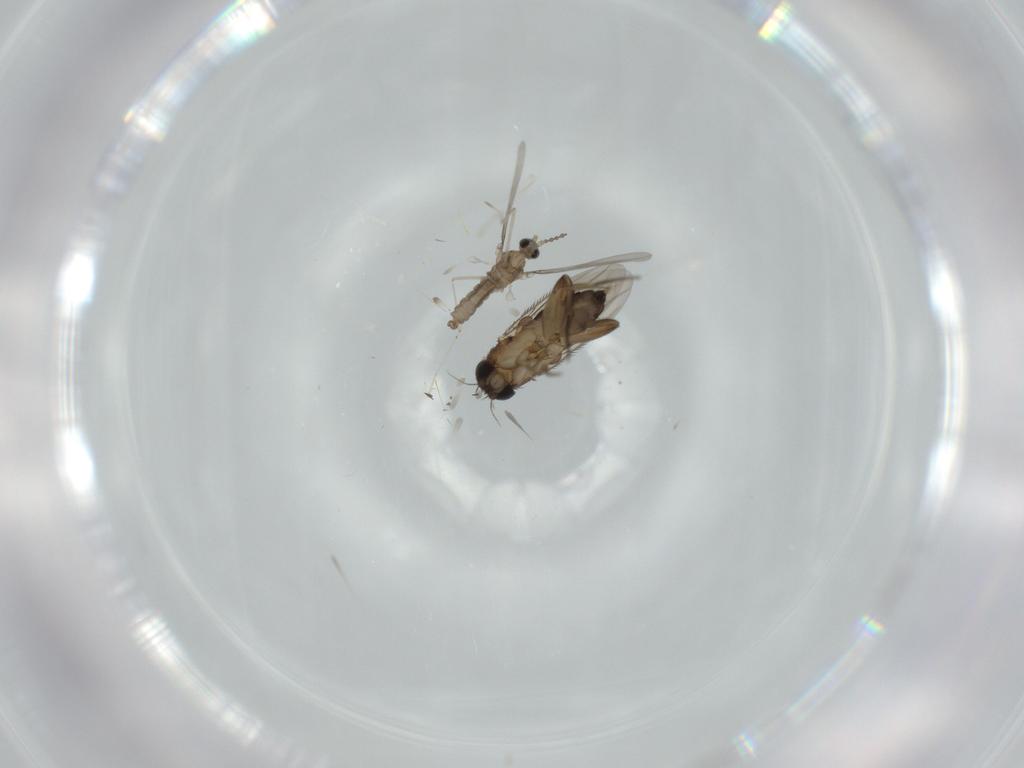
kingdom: Animalia
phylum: Arthropoda
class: Insecta
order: Diptera
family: Phoridae
